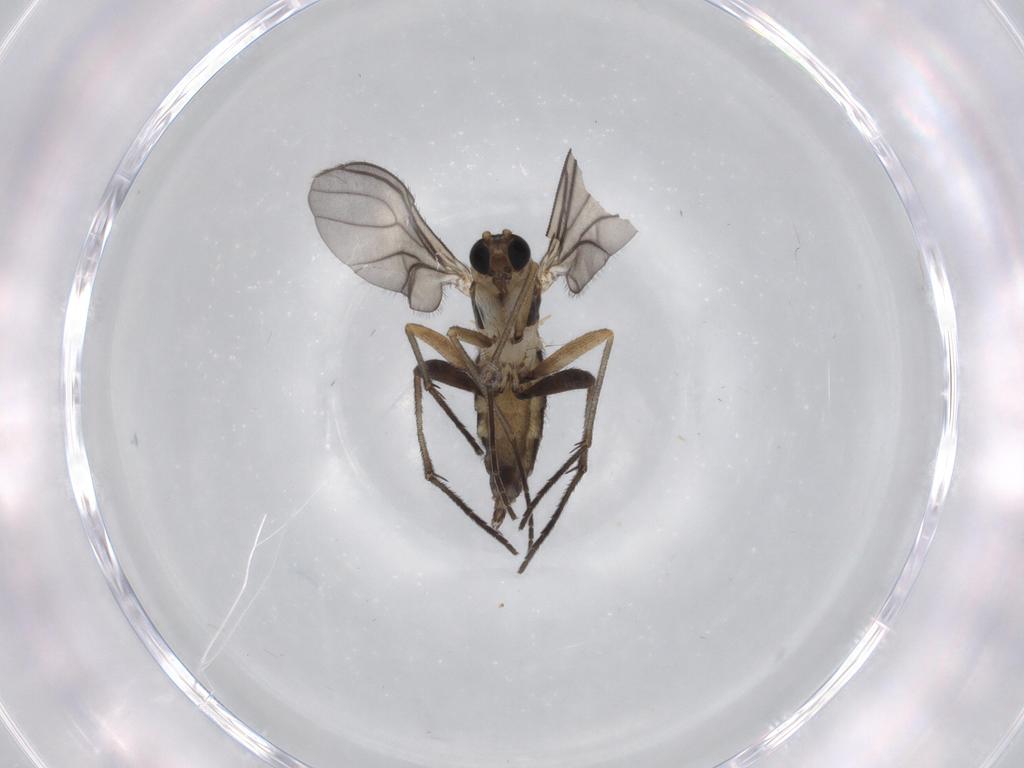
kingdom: Animalia
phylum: Arthropoda
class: Insecta
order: Diptera
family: Sciaridae
